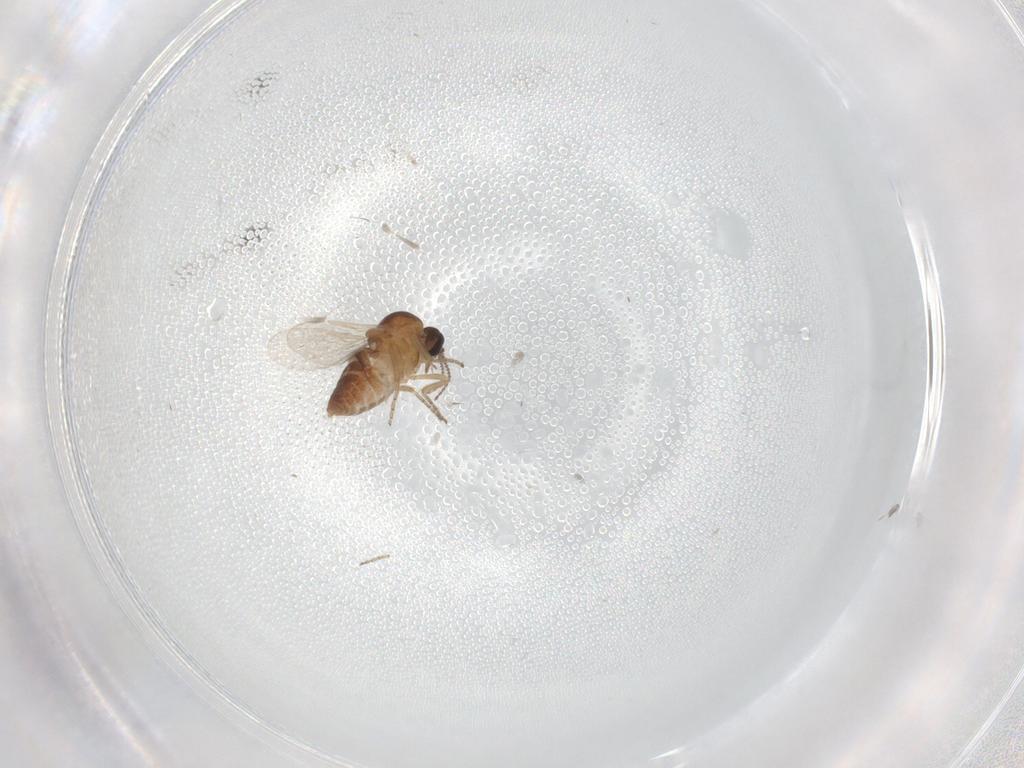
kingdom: Animalia
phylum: Arthropoda
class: Insecta
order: Diptera
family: Ceratopogonidae
